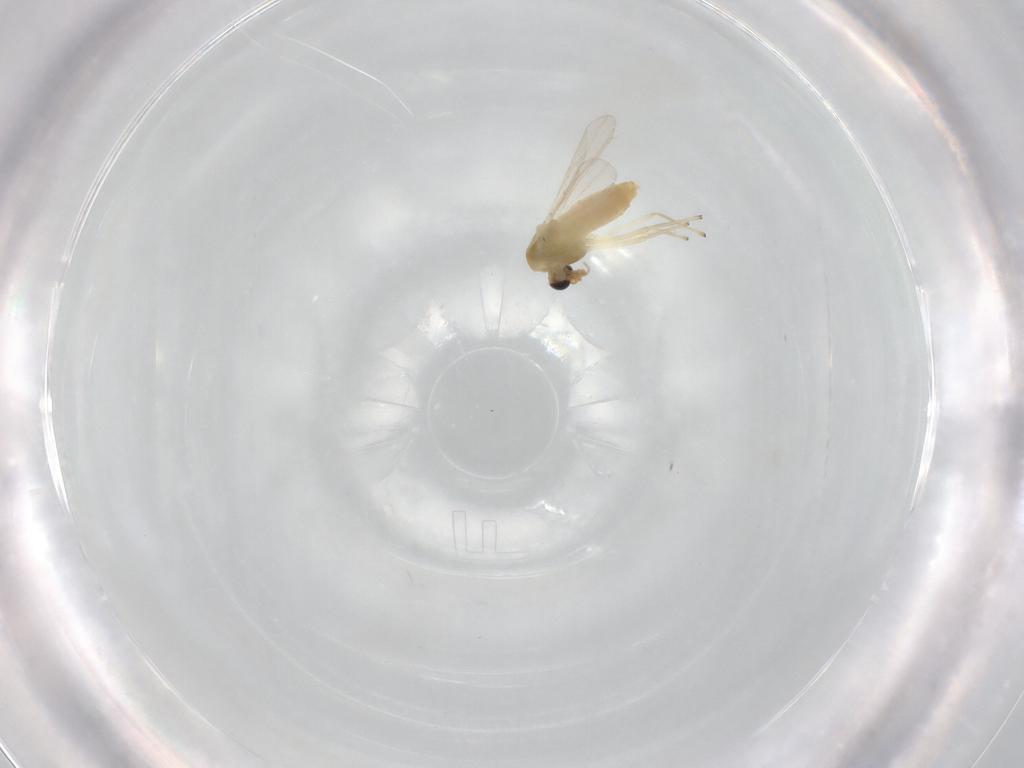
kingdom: Animalia
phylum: Arthropoda
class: Insecta
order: Diptera
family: Chironomidae
